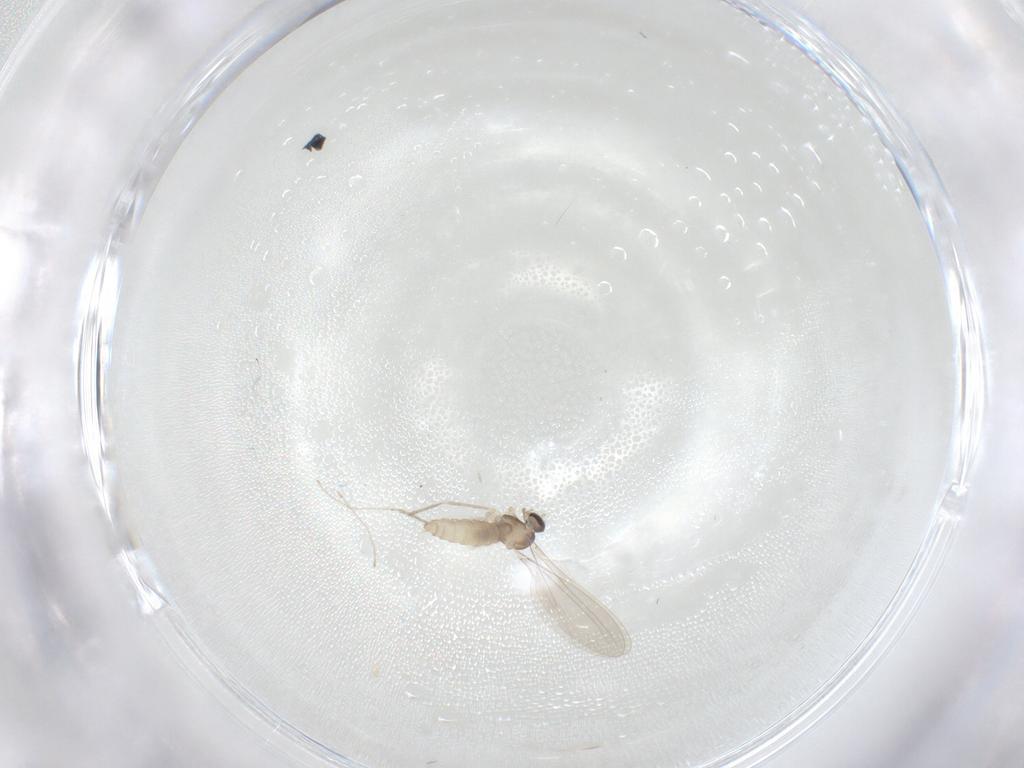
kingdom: Animalia
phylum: Arthropoda
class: Insecta
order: Diptera
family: Cecidomyiidae
